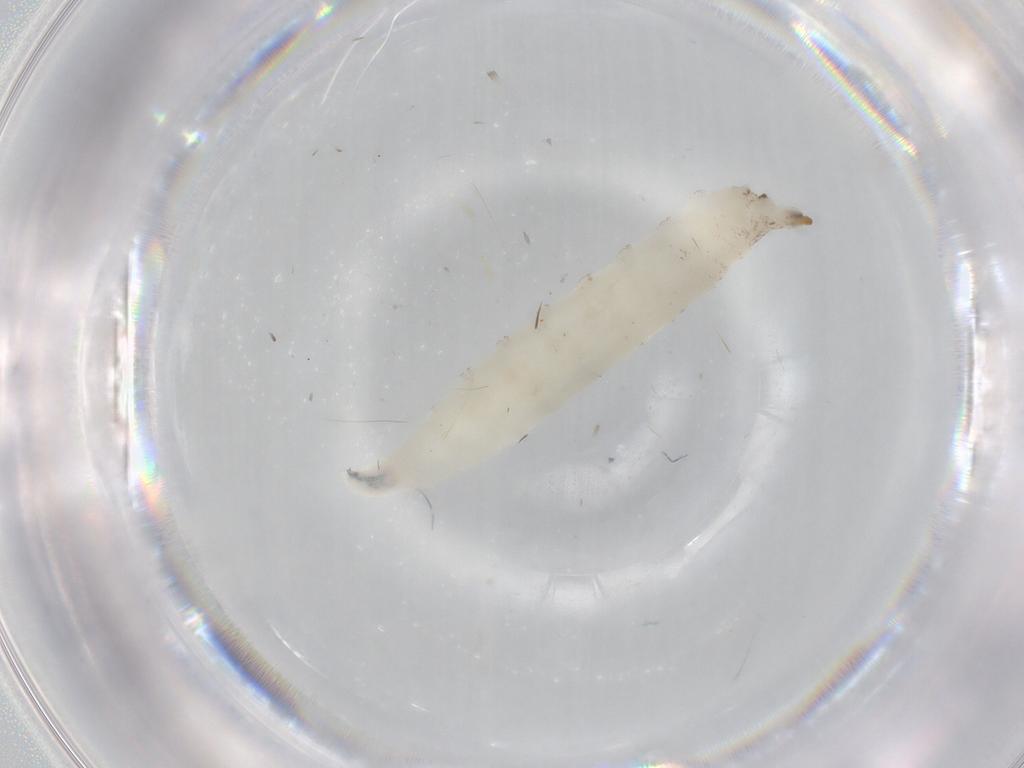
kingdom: Animalia
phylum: Arthropoda
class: Insecta
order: Diptera
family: Drosophilidae
